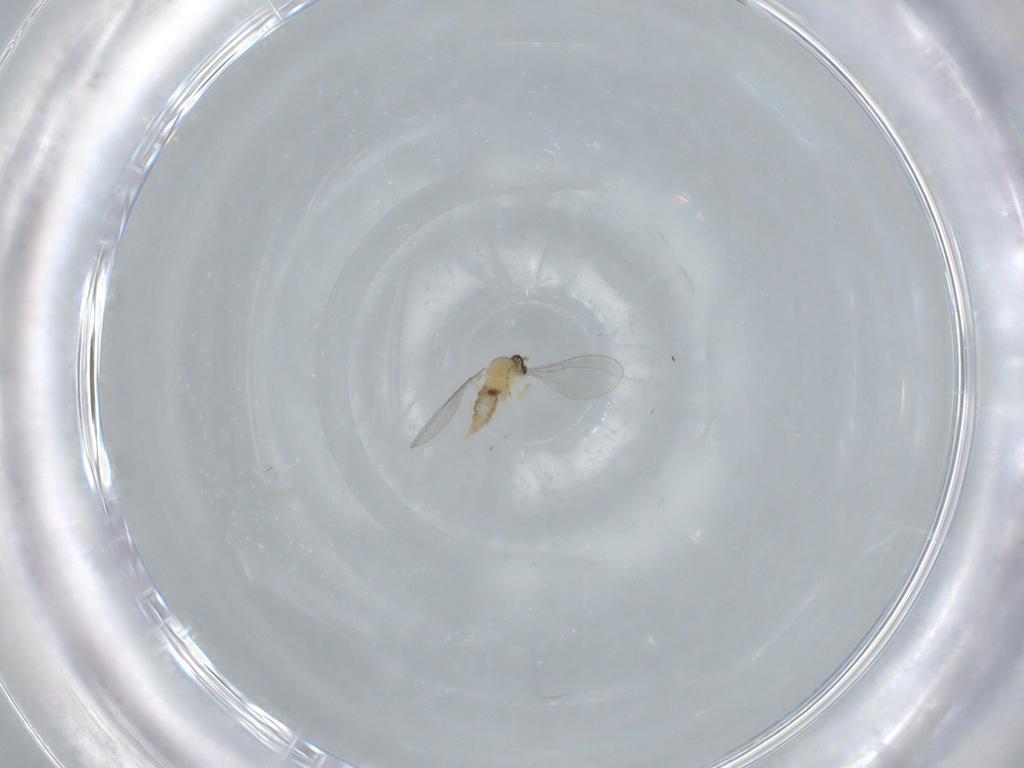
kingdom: Animalia
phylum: Arthropoda
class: Insecta
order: Diptera
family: Cecidomyiidae
